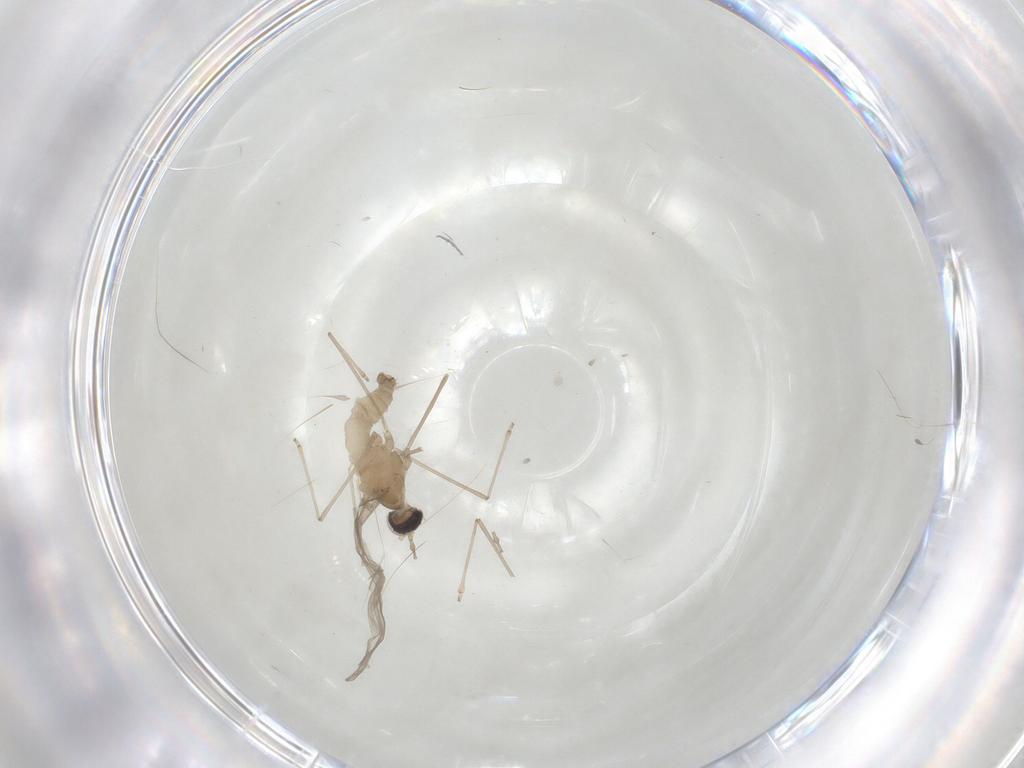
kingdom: Animalia
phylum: Arthropoda
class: Insecta
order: Diptera
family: Cecidomyiidae
